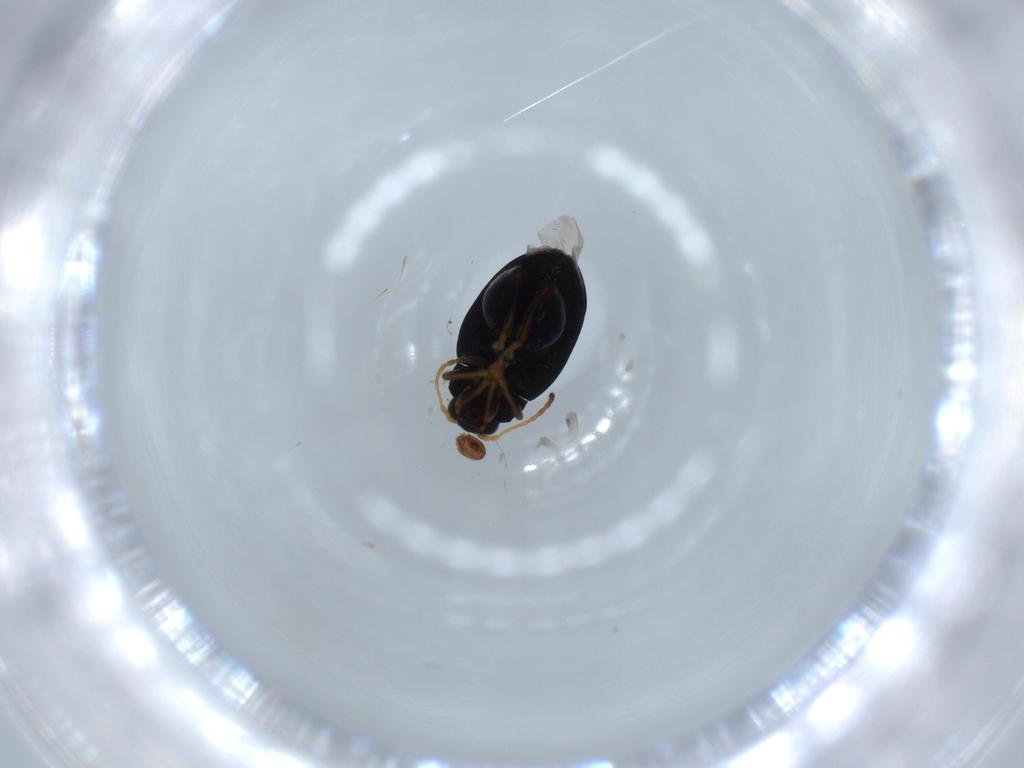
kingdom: Animalia
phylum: Arthropoda
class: Insecta
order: Coleoptera
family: Chrysomelidae
